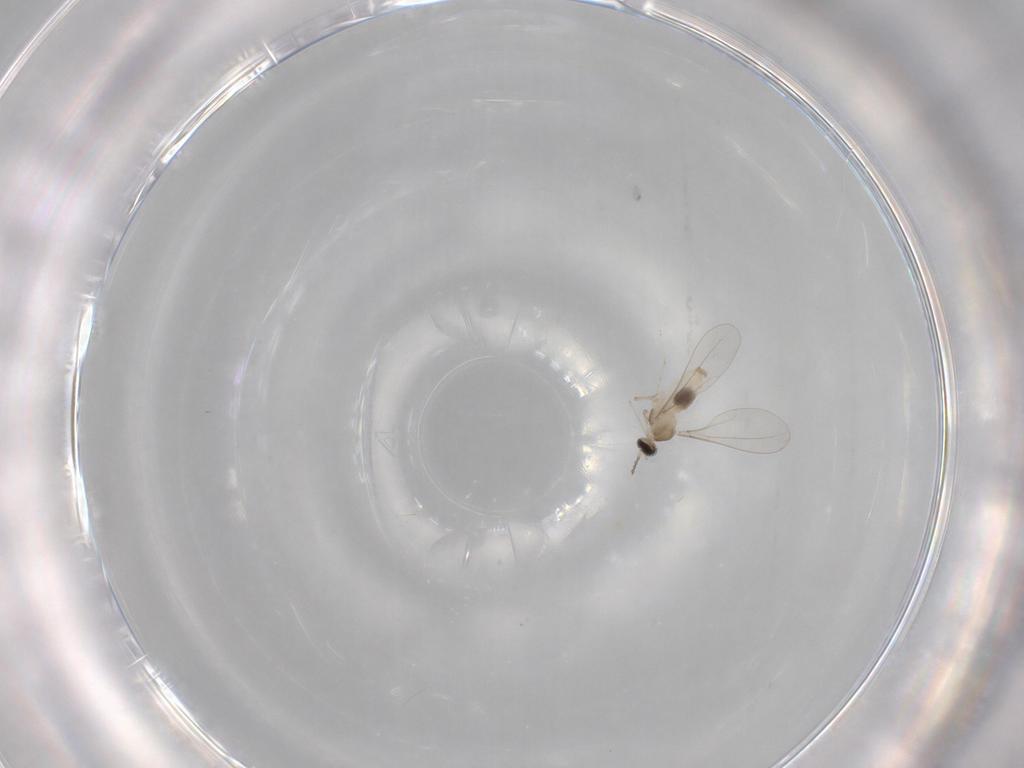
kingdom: Animalia
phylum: Arthropoda
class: Insecta
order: Diptera
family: Cecidomyiidae
